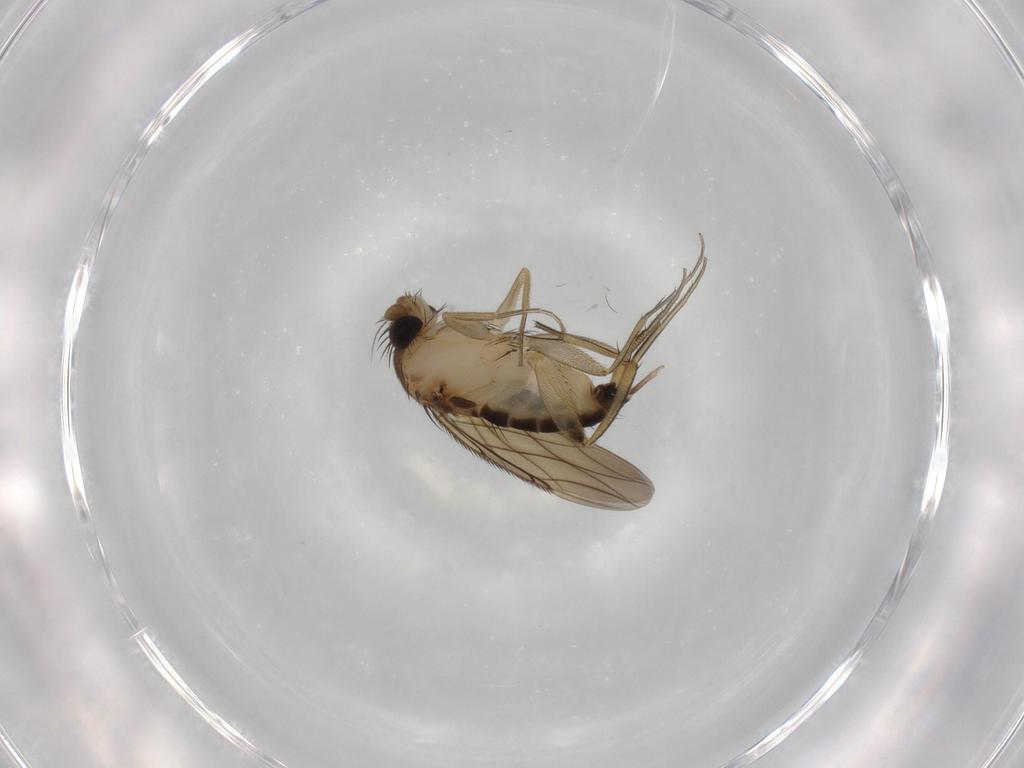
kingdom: Animalia
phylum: Arthropoda
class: Insecta
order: Diptera
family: Phoridae
